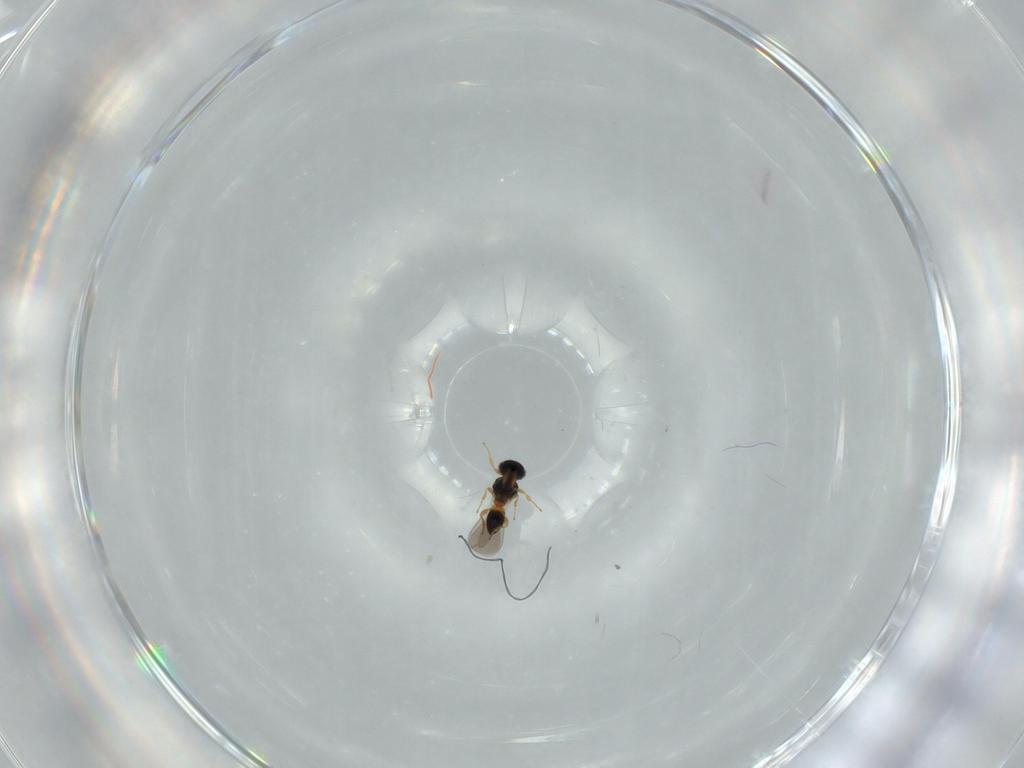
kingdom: Animalia
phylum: Arthropoda
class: Insecta
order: Hymenoptera
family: Platygastridae
